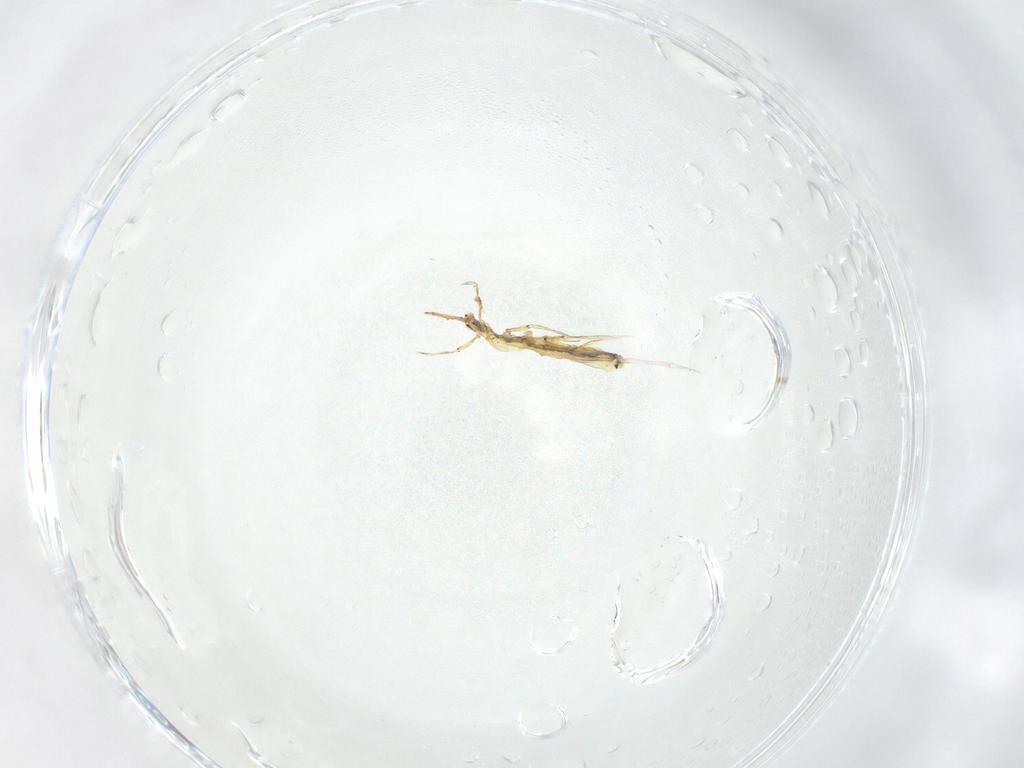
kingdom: Animalia
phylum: Arthropoda
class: Collembola
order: Entomobryomorpha
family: Entomobryidae
